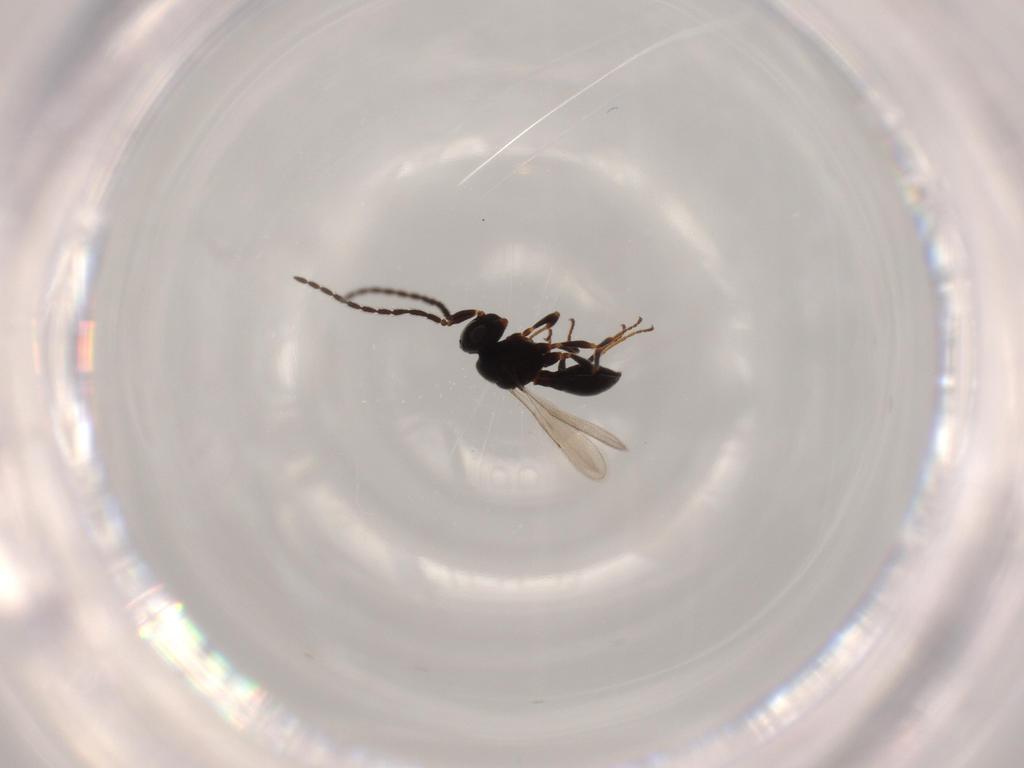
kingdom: Animalia
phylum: Arthropoda
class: Insecta
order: Hymenoptera
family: Scelionidae
